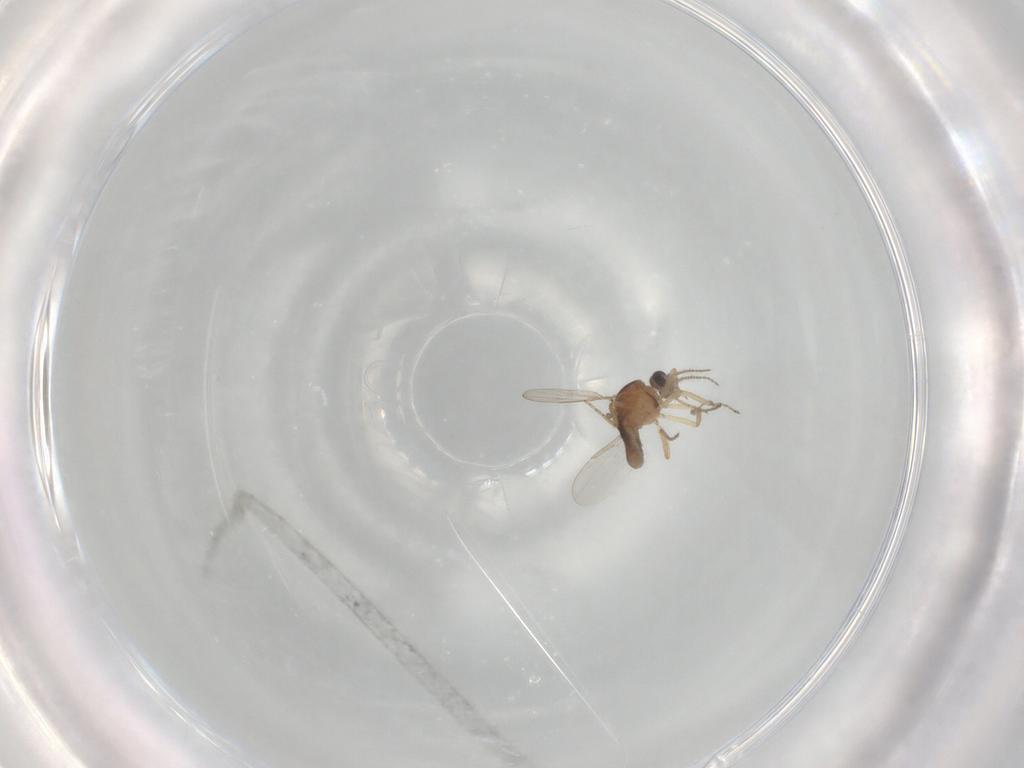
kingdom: Animalia
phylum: Arthropoda
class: Insecta
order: Diptera
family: Ceratopogonidae
